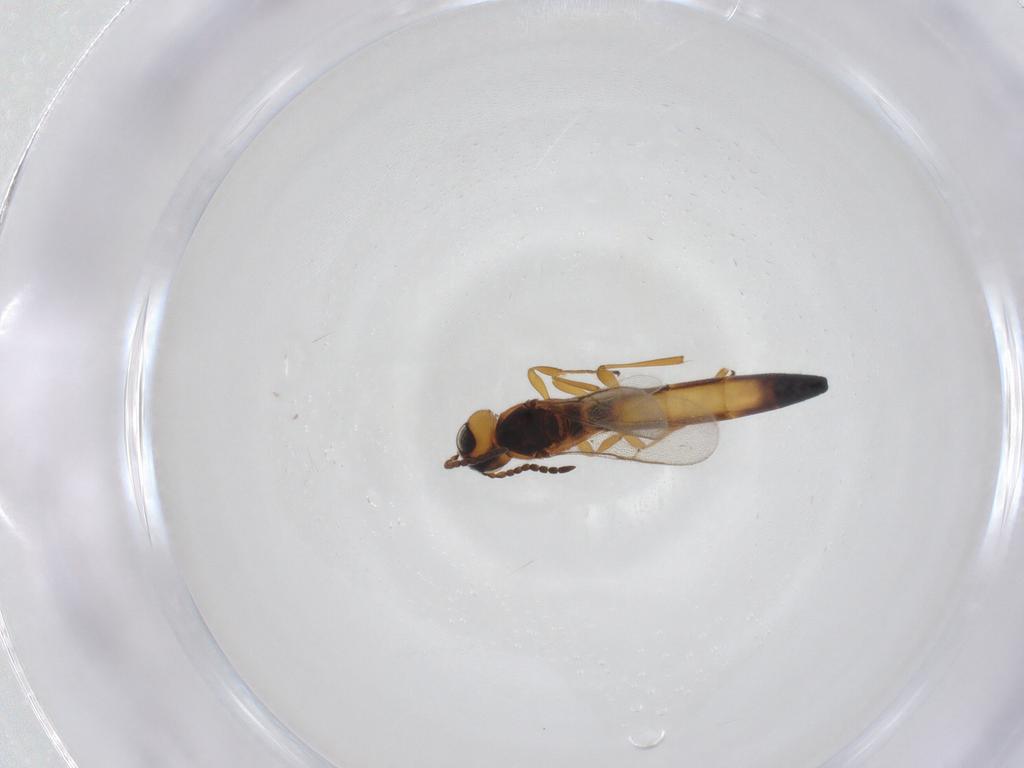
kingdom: Animalia
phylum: Arthropoda
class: Insecta
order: Hymenoptera
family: Scelionidae
